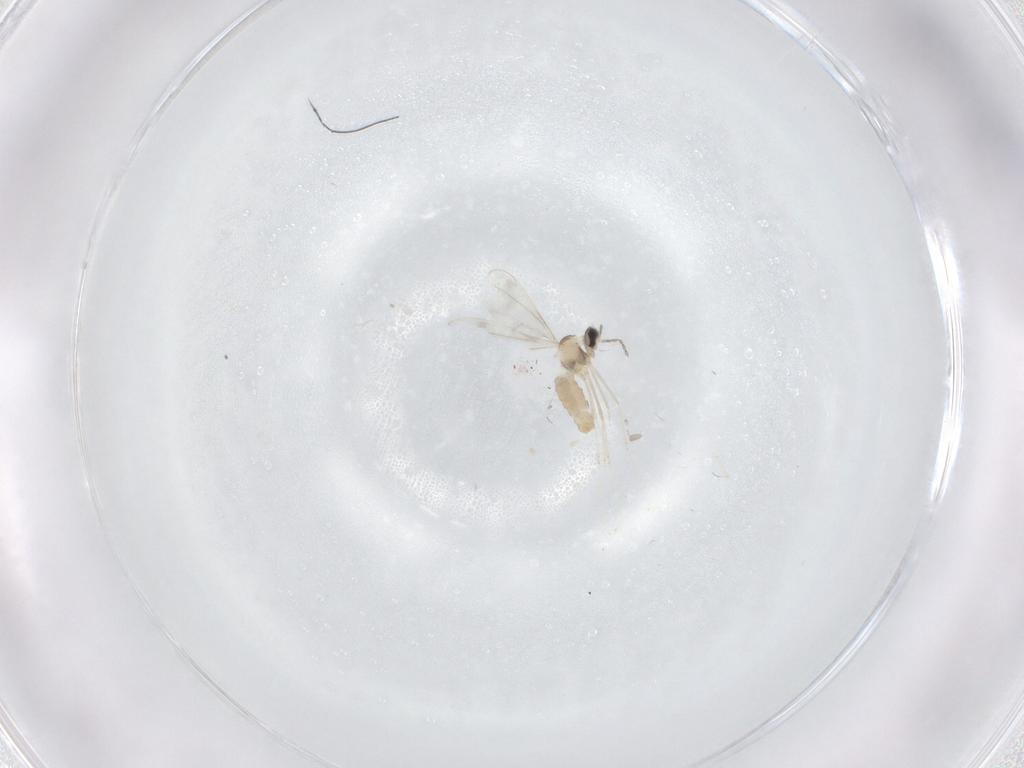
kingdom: Animalia
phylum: Arthropoda
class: Insecta
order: Diptera
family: Cecidomyiidae
